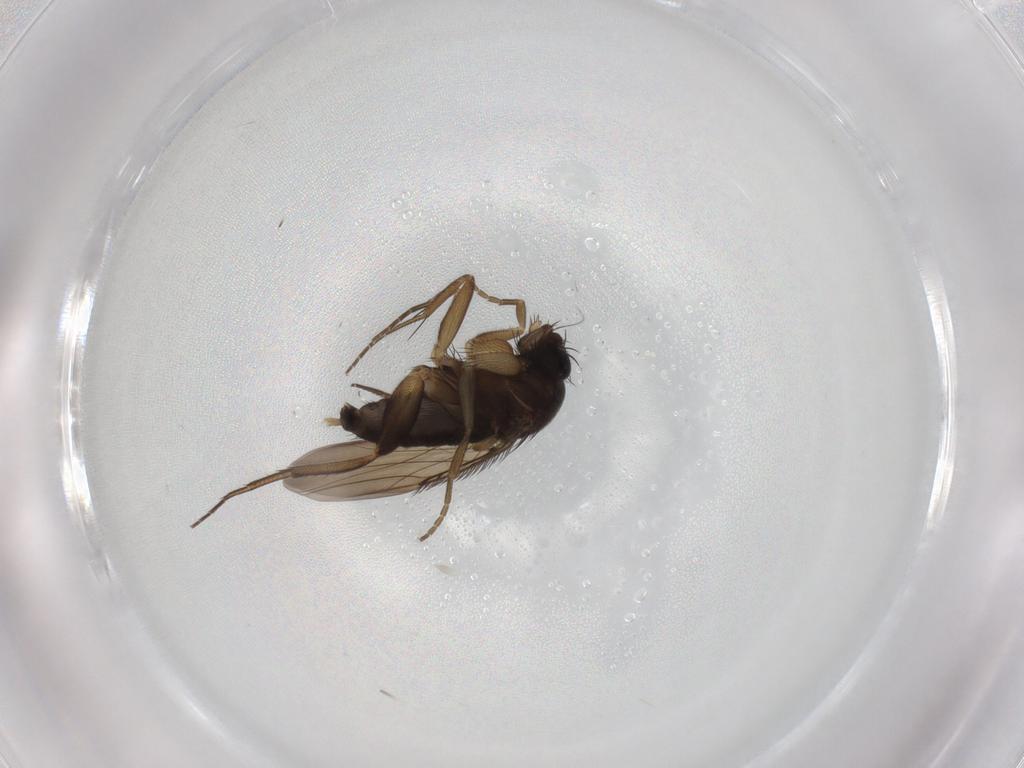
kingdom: Animalia
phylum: Arthropoda
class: Insecta
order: Diptera
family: Phoridae
